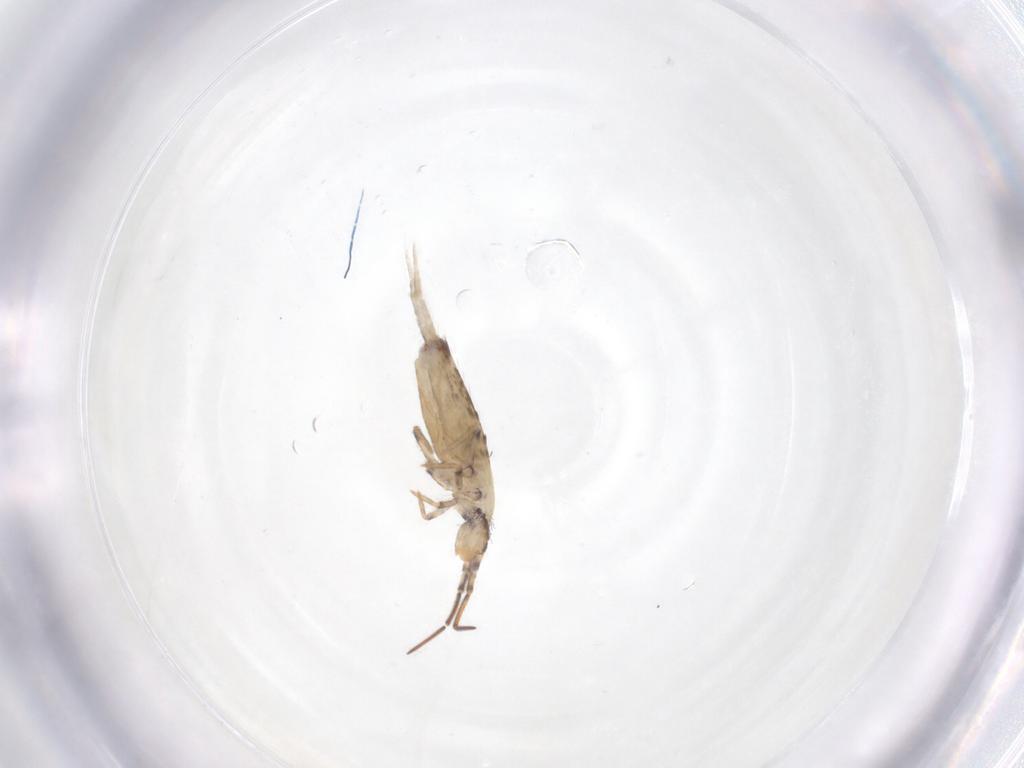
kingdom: Animalia
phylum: Arthropoda
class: Collembola
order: Entomobryomorpha
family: Entomobryidae
